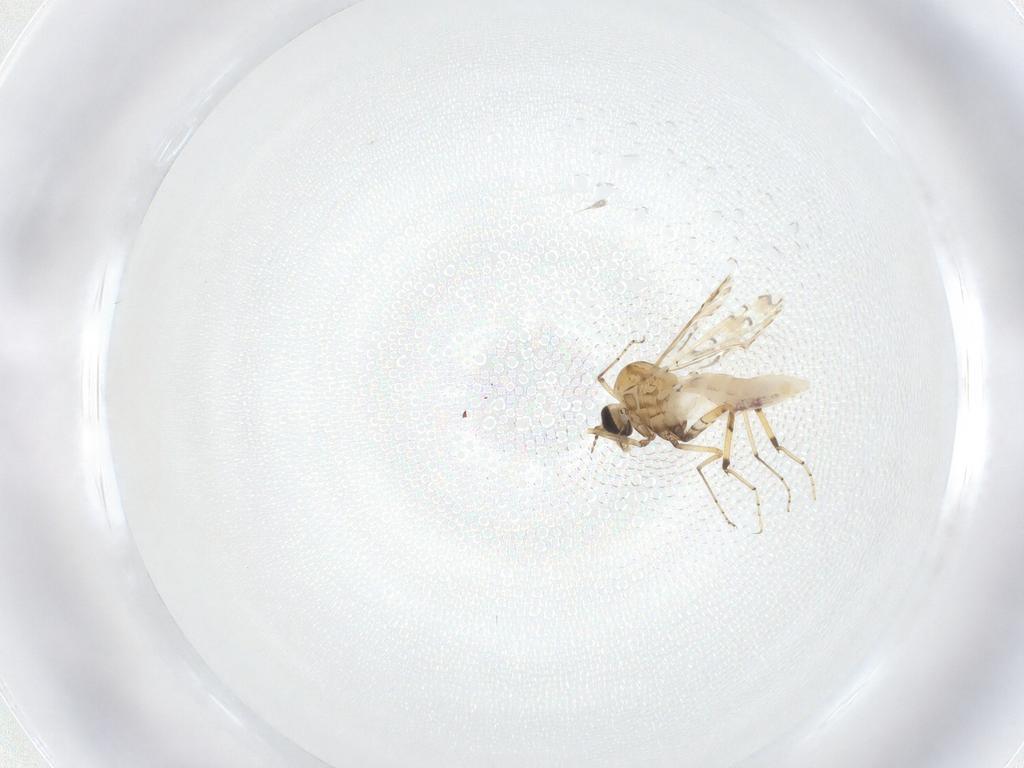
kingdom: Animalia
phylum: Arthropoda
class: Insecta
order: Diptera
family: Ceratopogonidae
